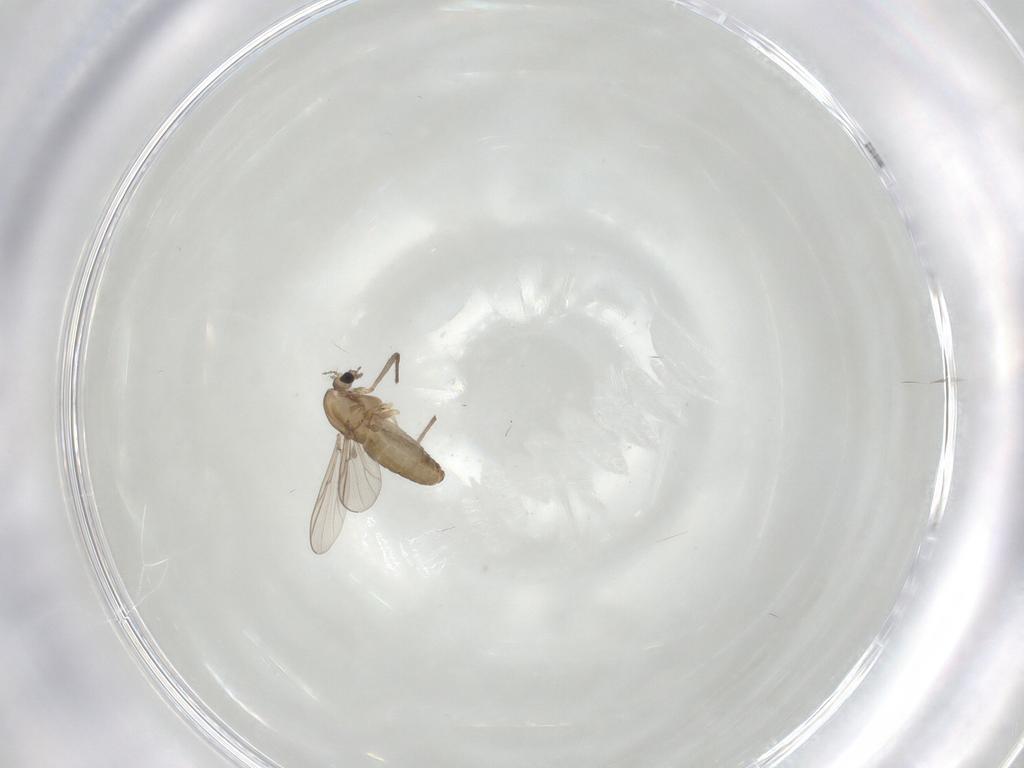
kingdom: Animalia
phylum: Arthropoda
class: Insecta
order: Diptera
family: Chironomidae
